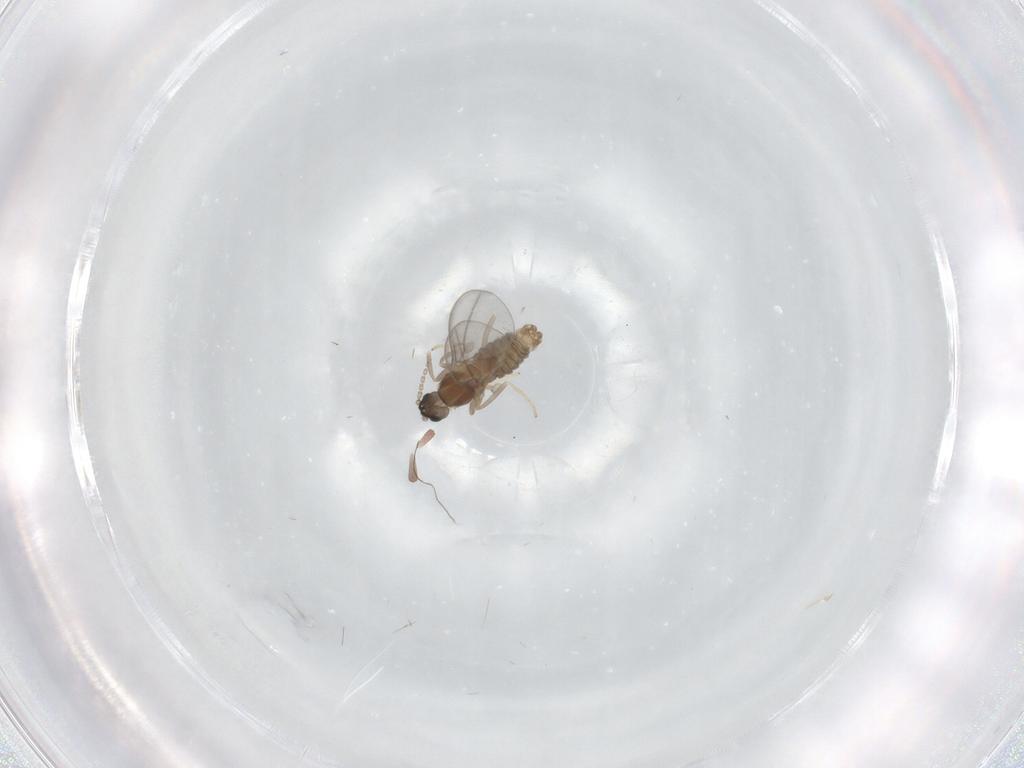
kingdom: Animalia
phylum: Arthropoda
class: Insecta
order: Diptera
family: Cecidomyiidae
